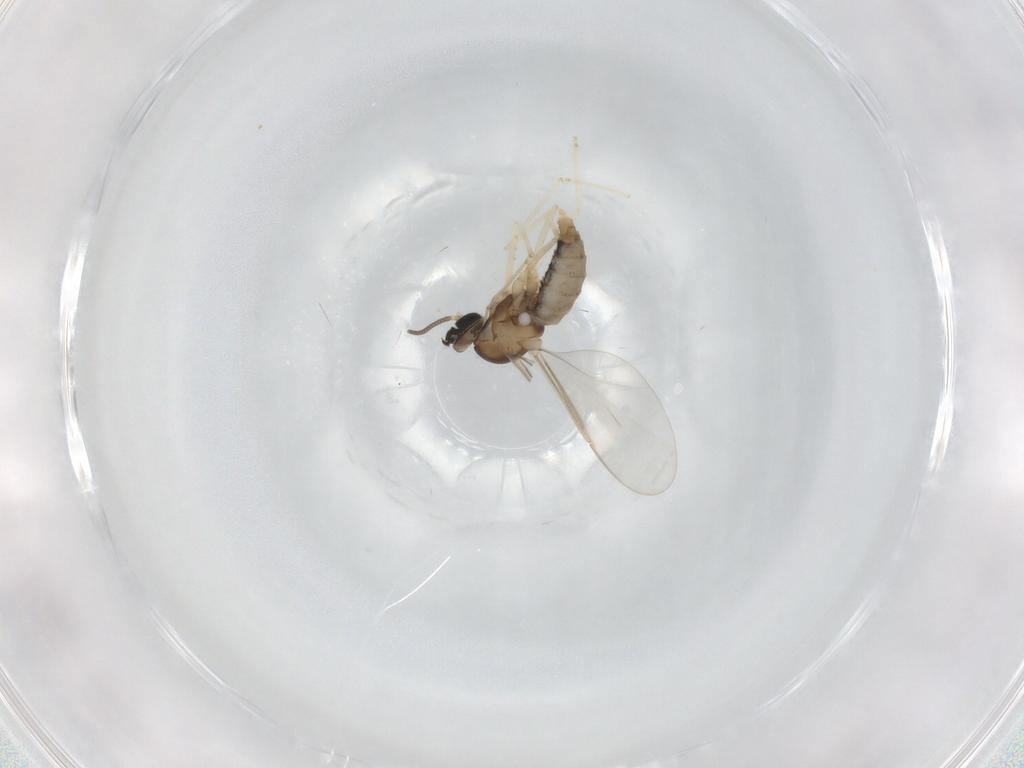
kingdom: Animalia
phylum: Arthropoda
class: Insecta
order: Diptera
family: Cecidomyiidae
